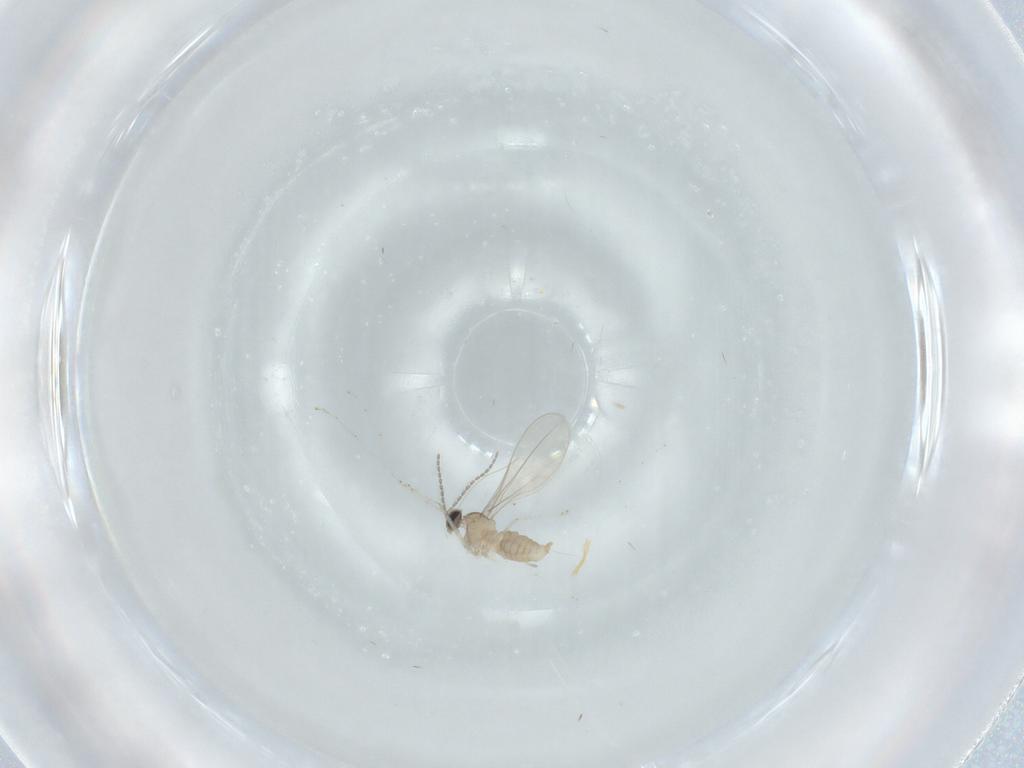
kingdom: Animalia
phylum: Arthropoda
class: Insecta
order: Diptera
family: Cecidomyiidae
